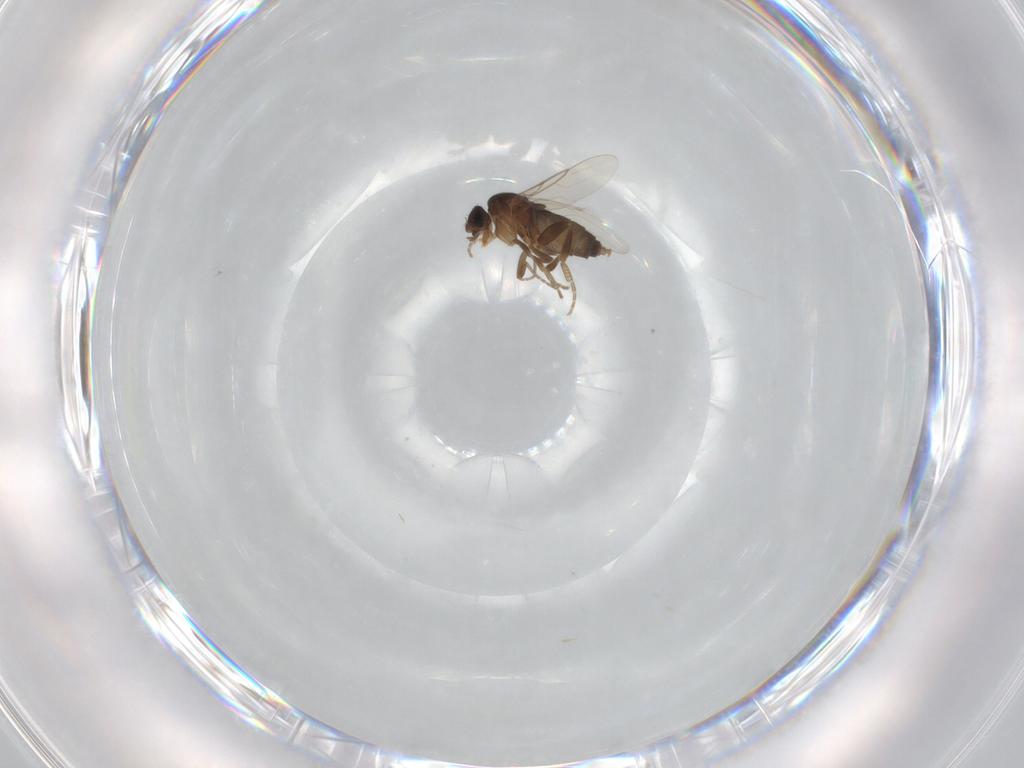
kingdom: Animalia
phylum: Arthropoda
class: Insecta
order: Diptera
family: Phoridae
